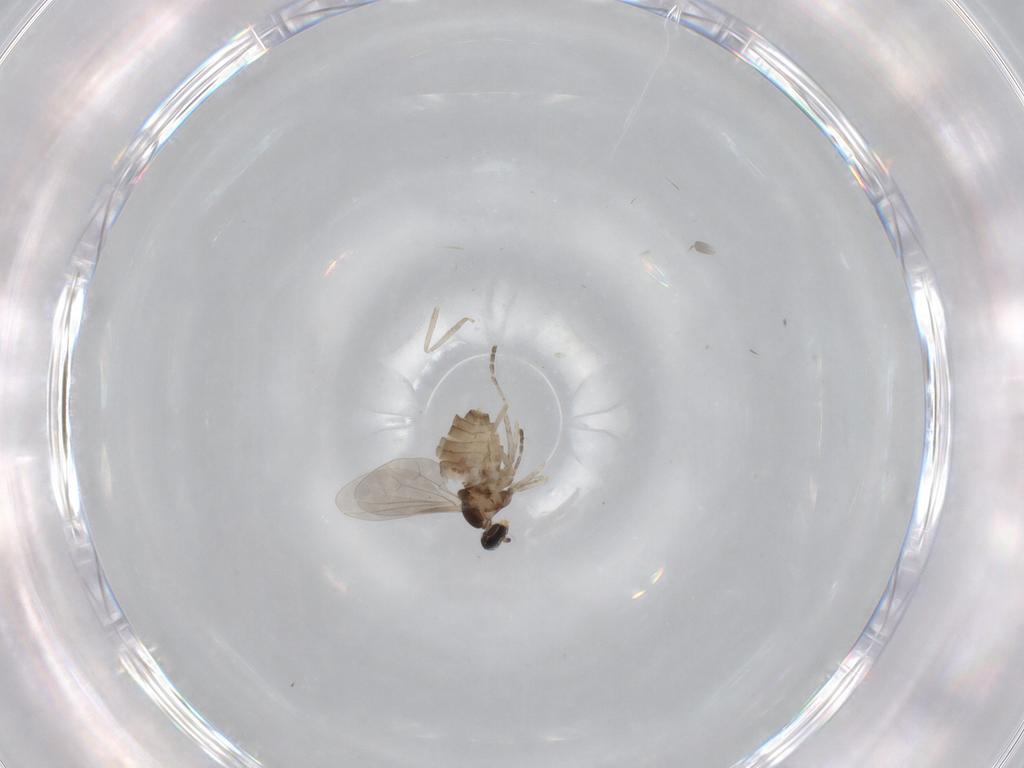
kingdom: Animalia
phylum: Arthropoda
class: Insecta
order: Diptera
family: Cecidomyiidae
